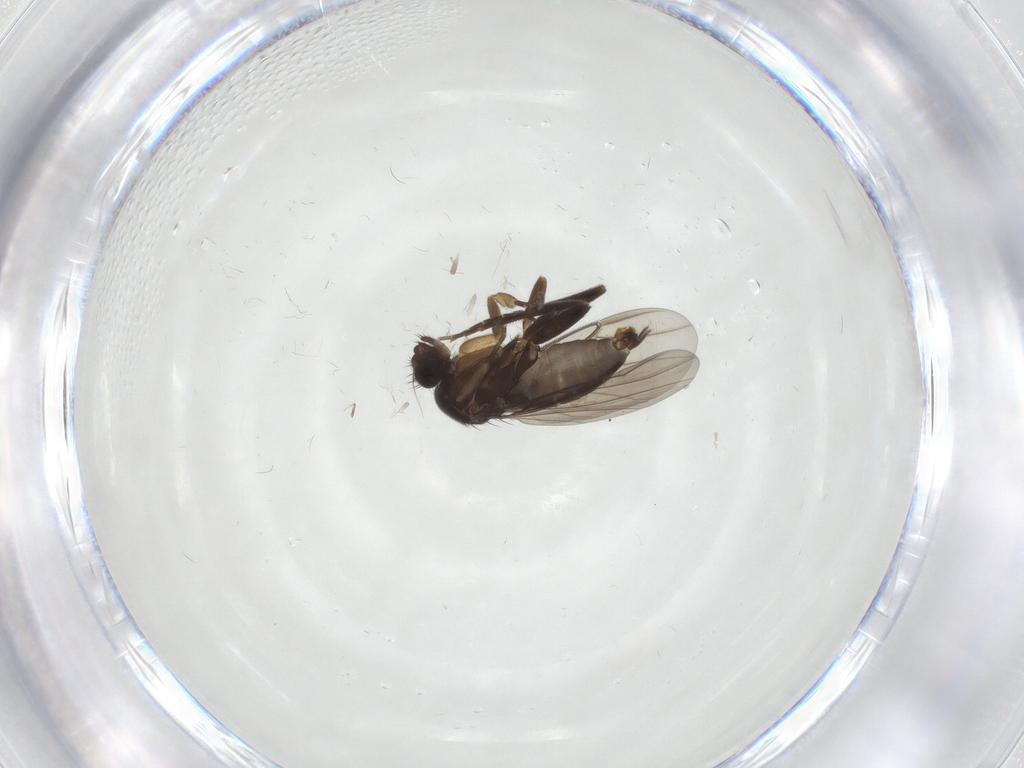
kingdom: Animalia
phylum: Arthropoda
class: Insecta
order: Diptera
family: Phoridae
